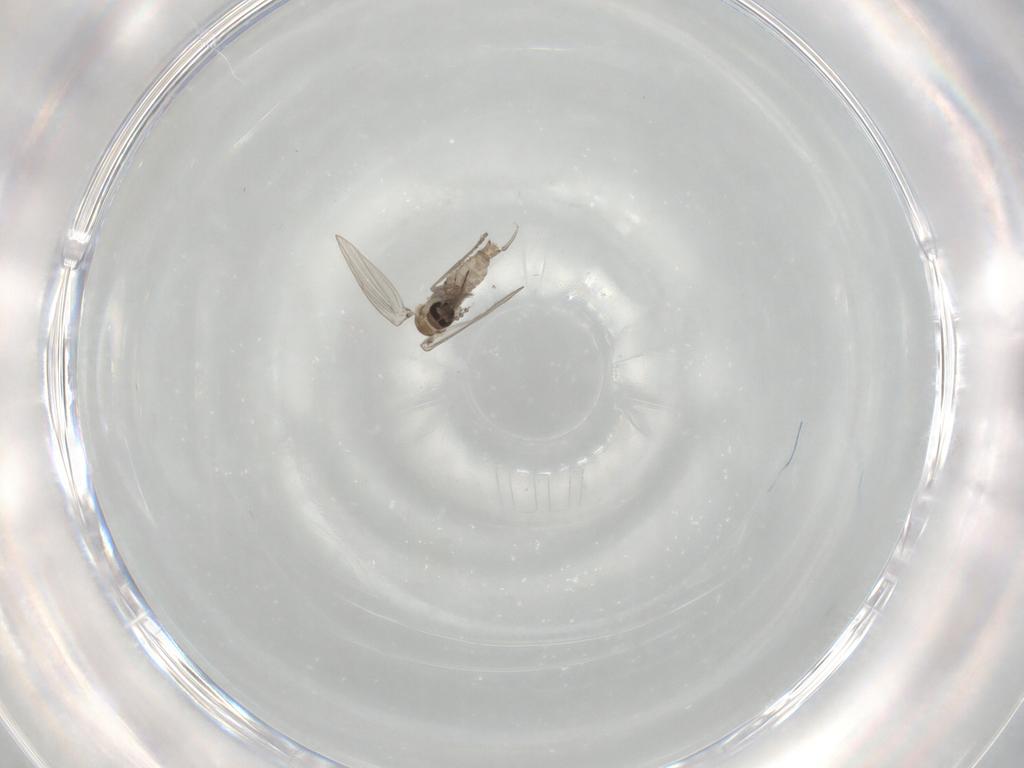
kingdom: Animalia
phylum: Arthropoda
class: Insecta
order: Diptera
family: Psychodidae
